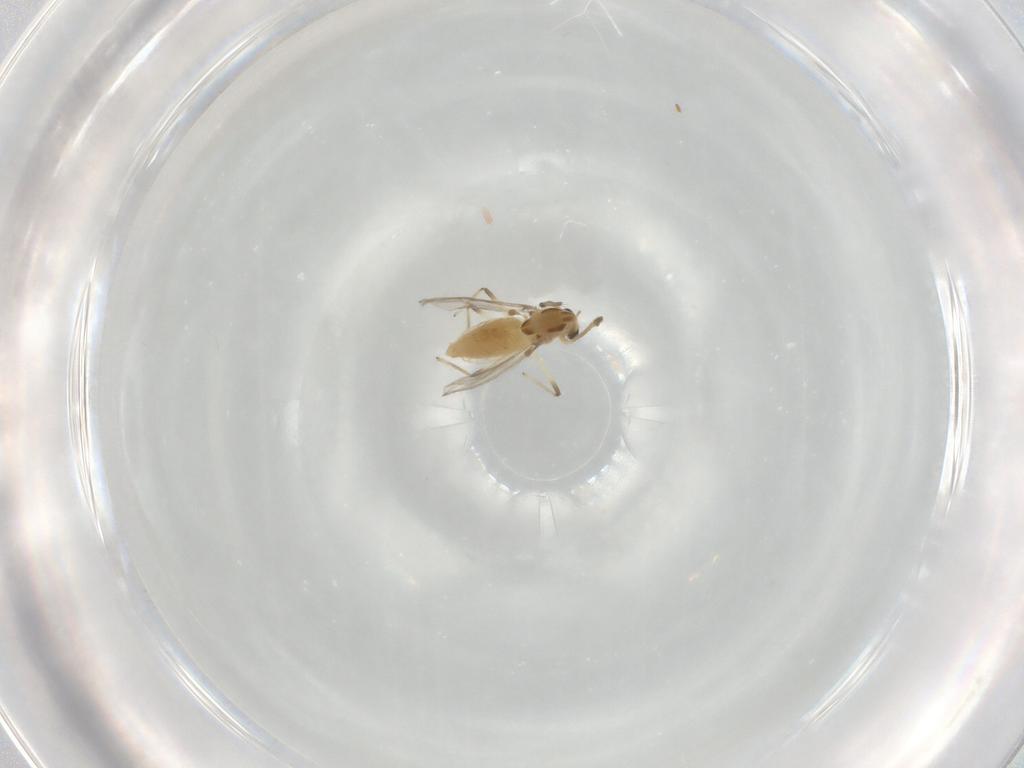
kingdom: Animalia
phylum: Arthropoda
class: Insecta
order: Diptera
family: Chironomidae
